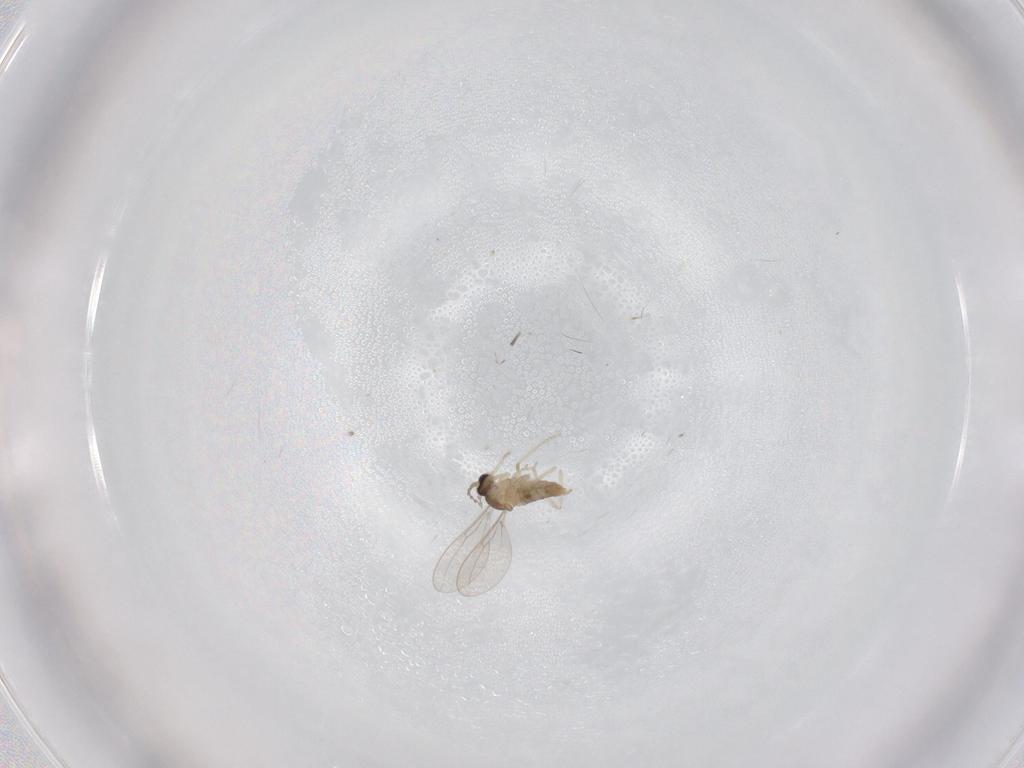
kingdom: Animalia
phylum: Arthropoda
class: Insecta
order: Diptera
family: Cecidomyiidae
